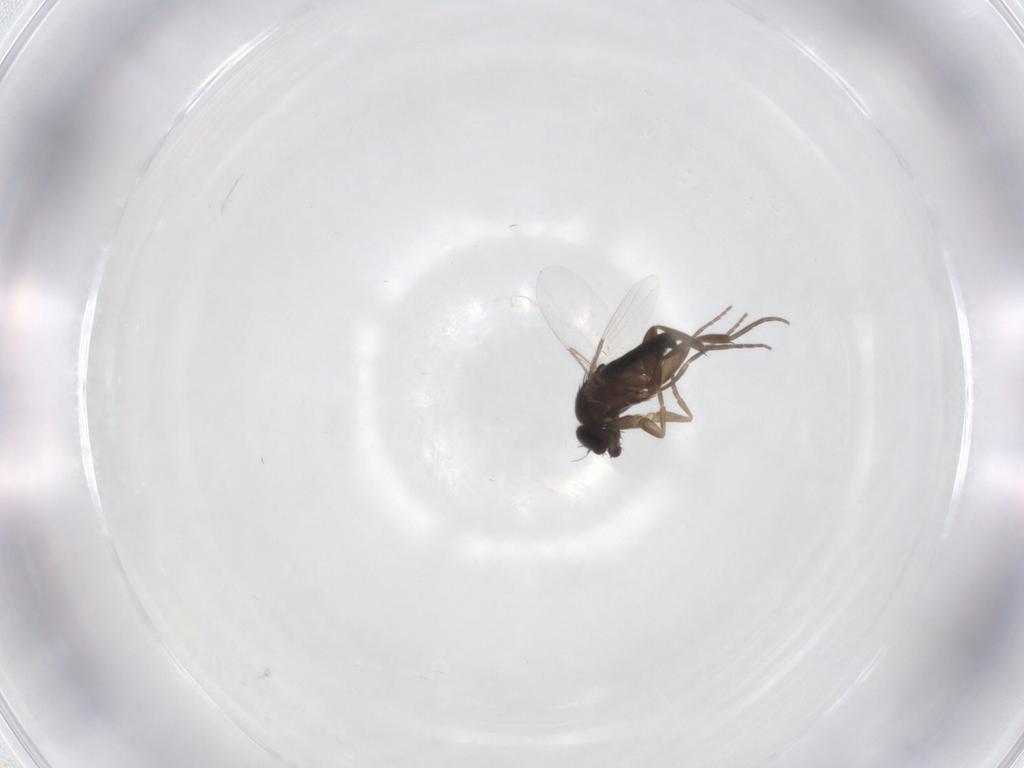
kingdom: Animalia
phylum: Arthropoda
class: Insecta
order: Diptera
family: Phoridae
